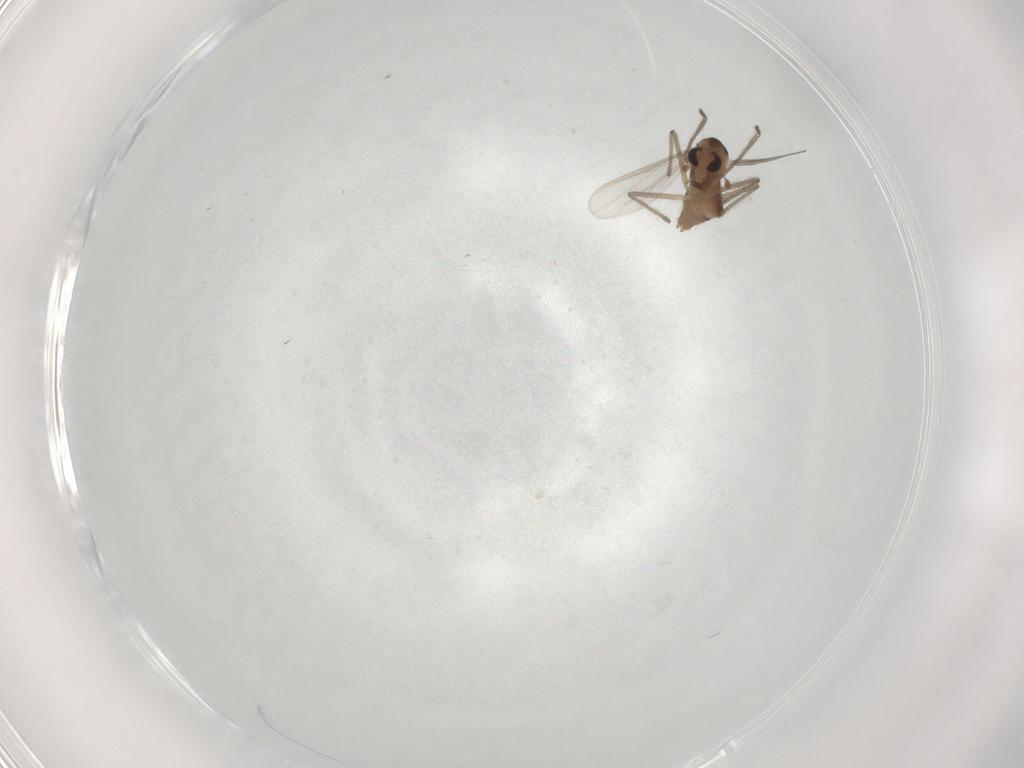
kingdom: Animalia
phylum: Arthropoda
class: Insecta
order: Diptera
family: Chironomidae
